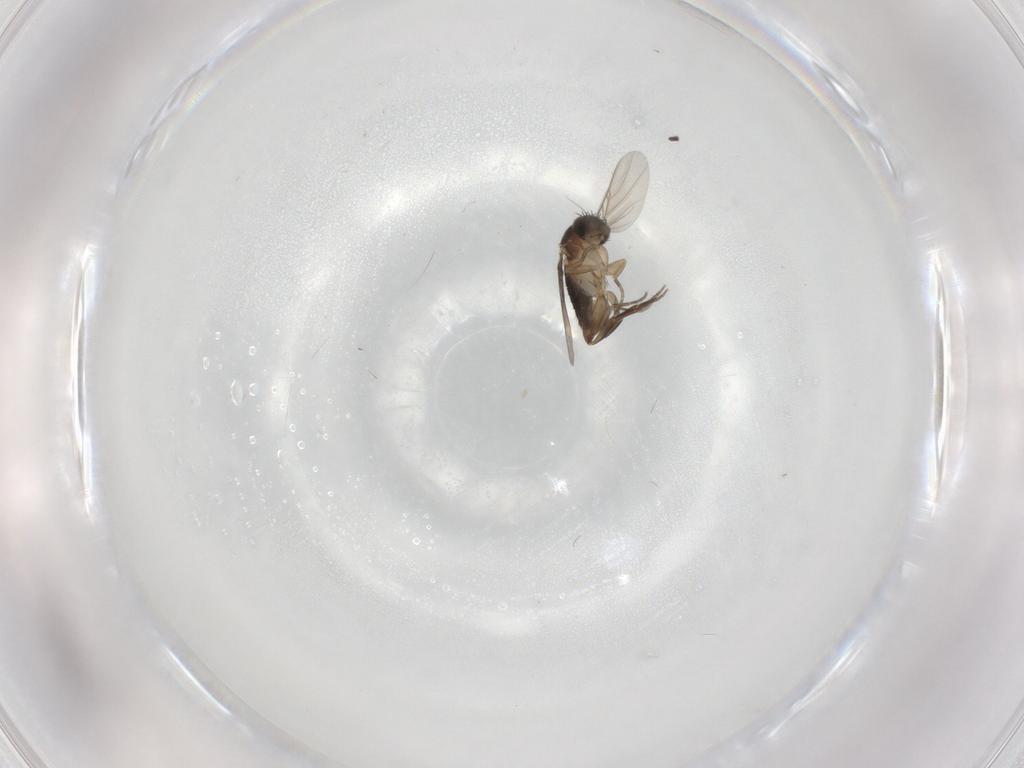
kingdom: Animalia
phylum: Arthropoda
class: Insecta
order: Diptera
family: Phoridae
